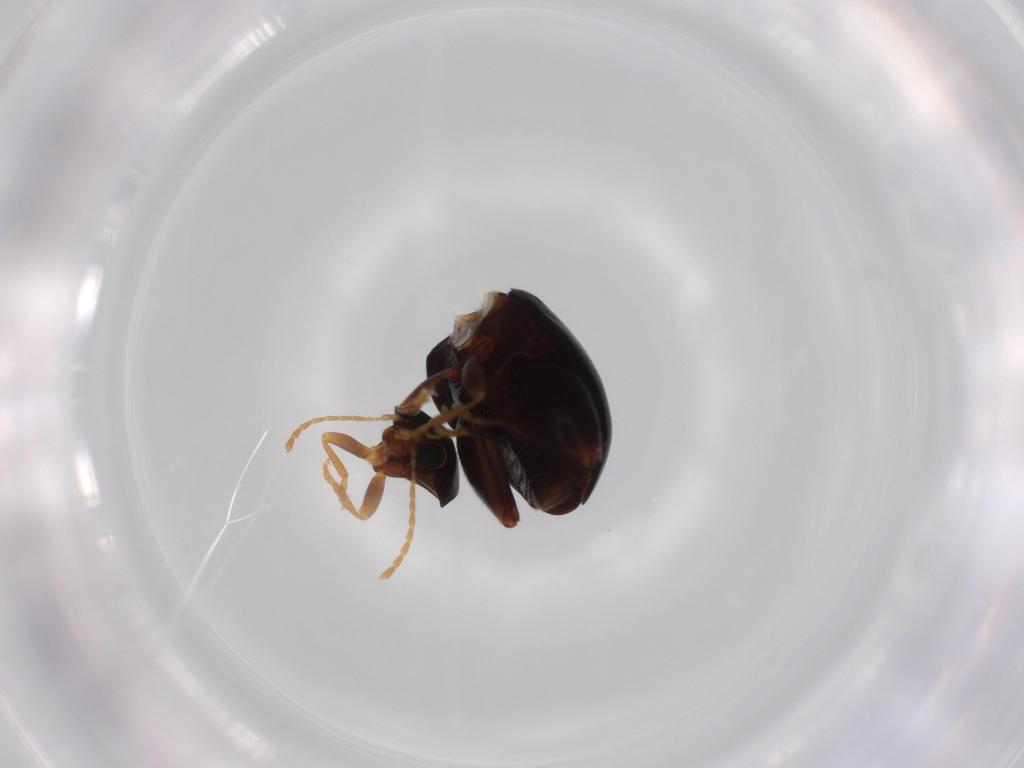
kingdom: Animalia
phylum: Arthropoda
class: Insecta
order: Coleoptera
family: Chrysomelidae
